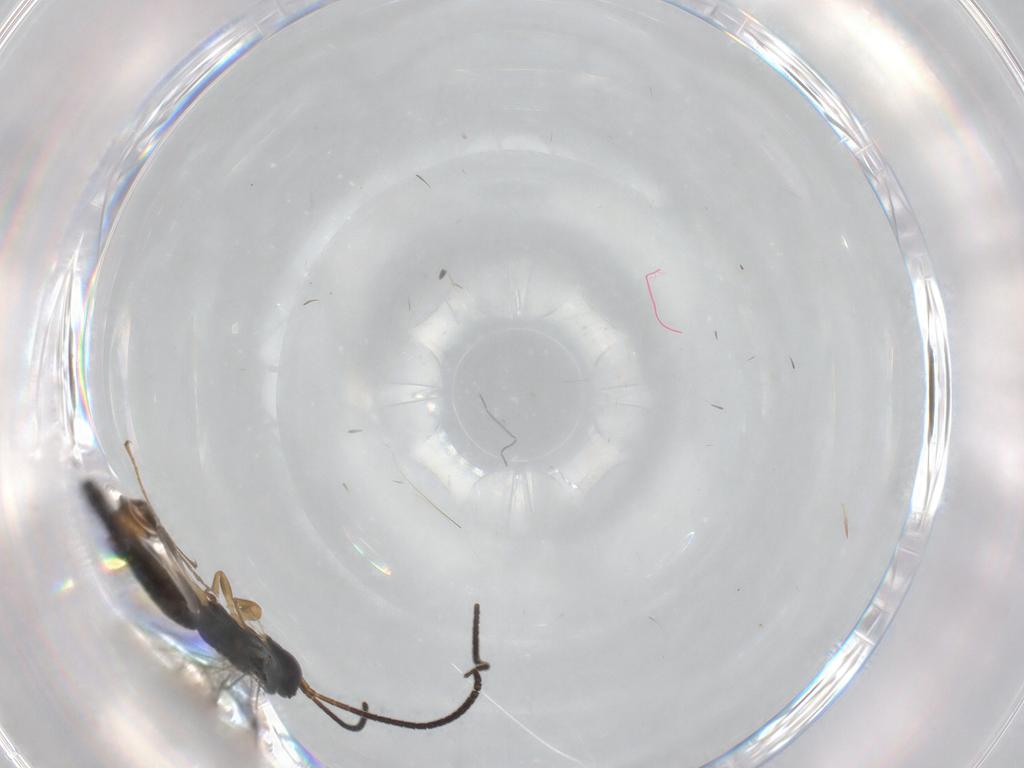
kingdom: Animalia
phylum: Arthropoda
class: Insecta
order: Hymenoptera
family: Ichneumonidae
